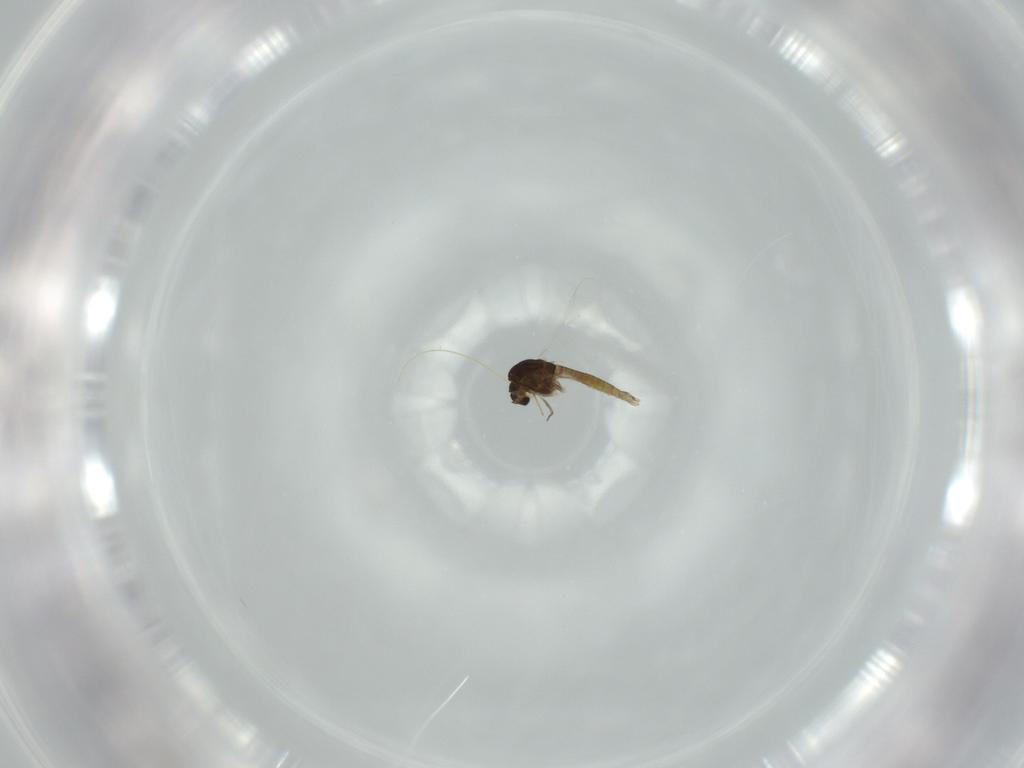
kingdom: Animalia
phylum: Arthropoda
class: Insecta
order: Diptera
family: Chironomidae
